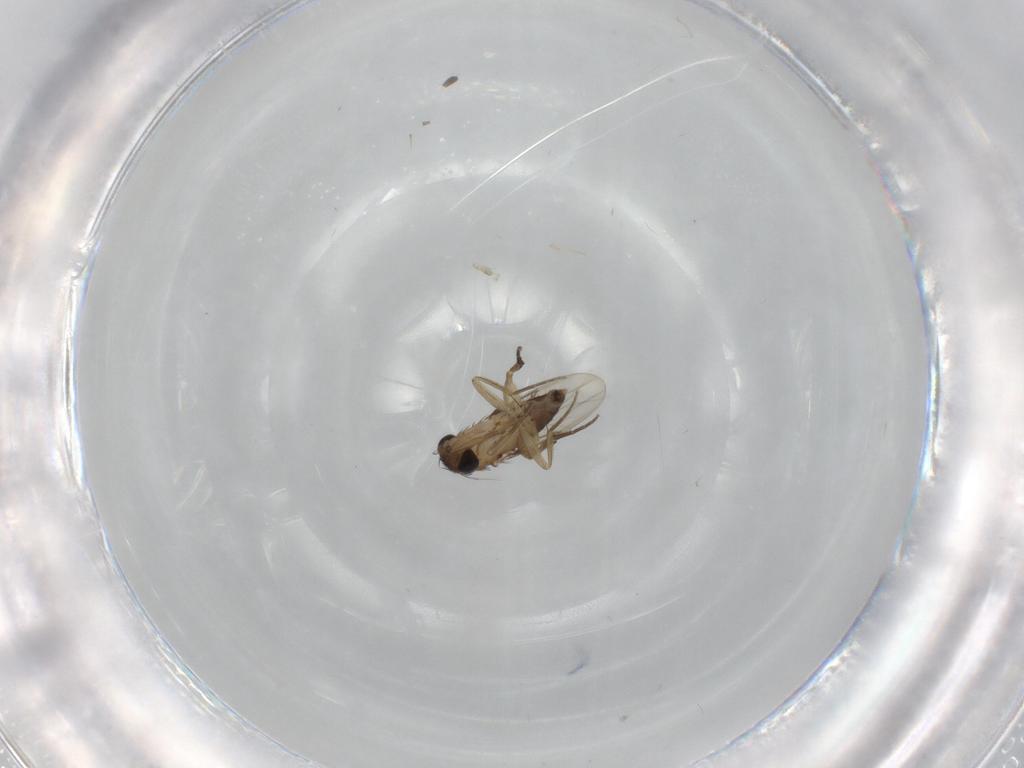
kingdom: Animalia
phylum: Arthropoda
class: Insecta
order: Diptera
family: Phoridae
